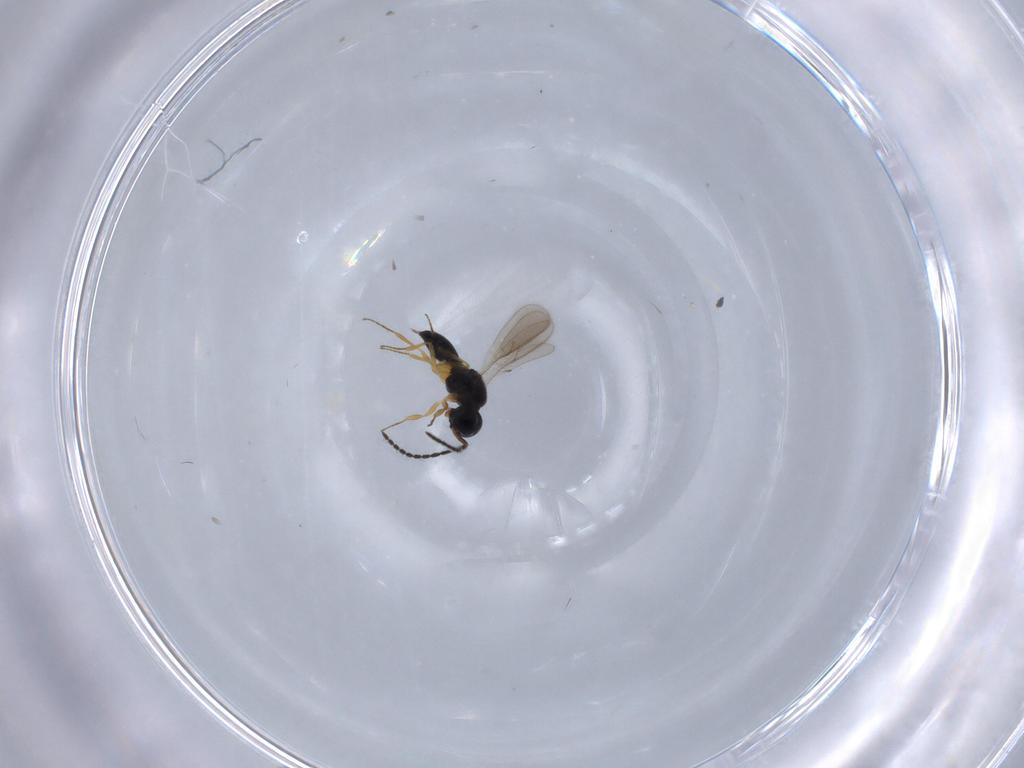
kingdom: Animalia
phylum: Arthropoda
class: Insecta
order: Hymenoptera
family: Scelionidae
